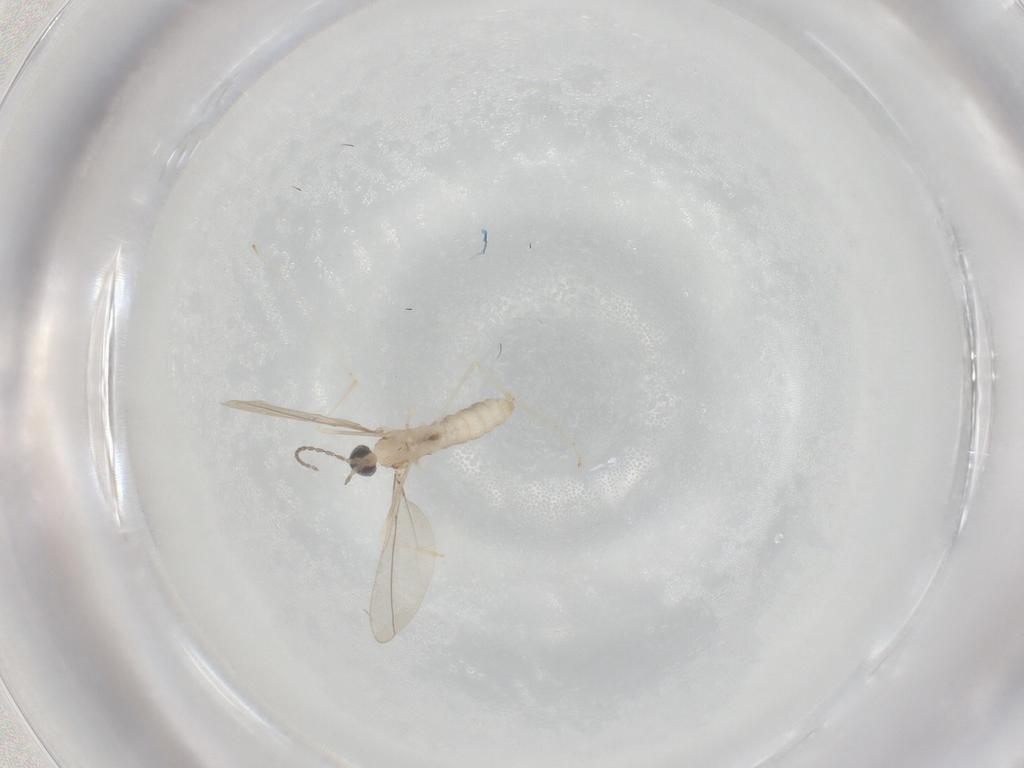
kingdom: Animalia
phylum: Arthropoda
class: Insecta
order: Diptera
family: Cecidomyiidae
